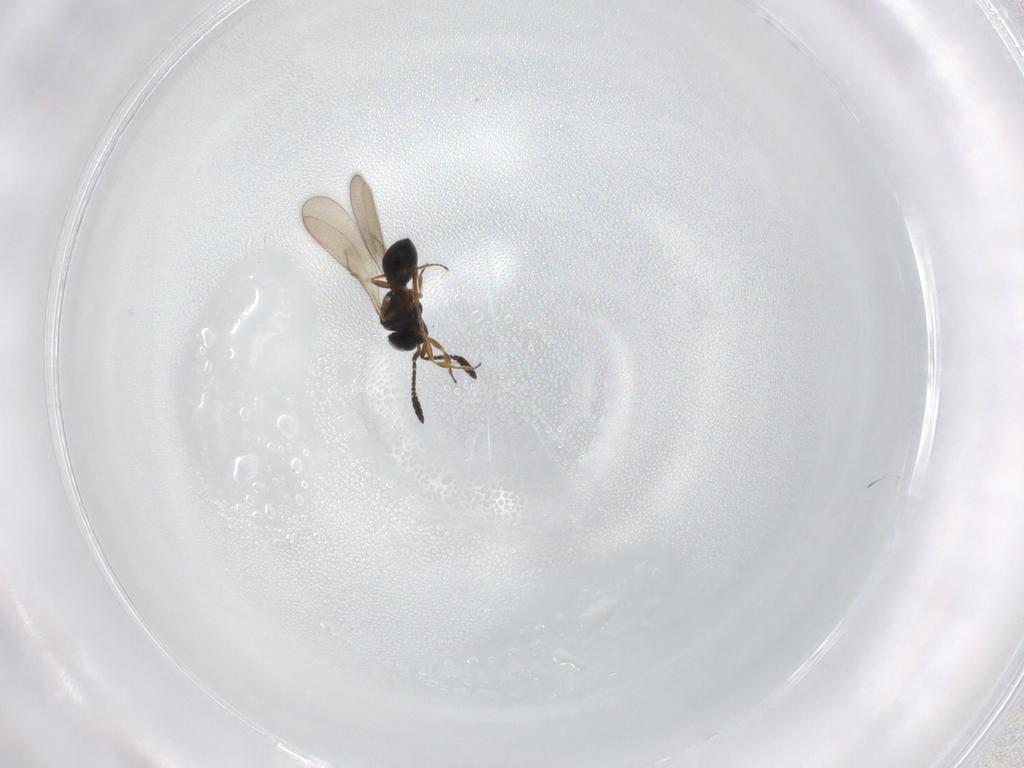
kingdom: Animalia
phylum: Arthropoda
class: Insecta
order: Hymenoptera
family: Scelionidae
